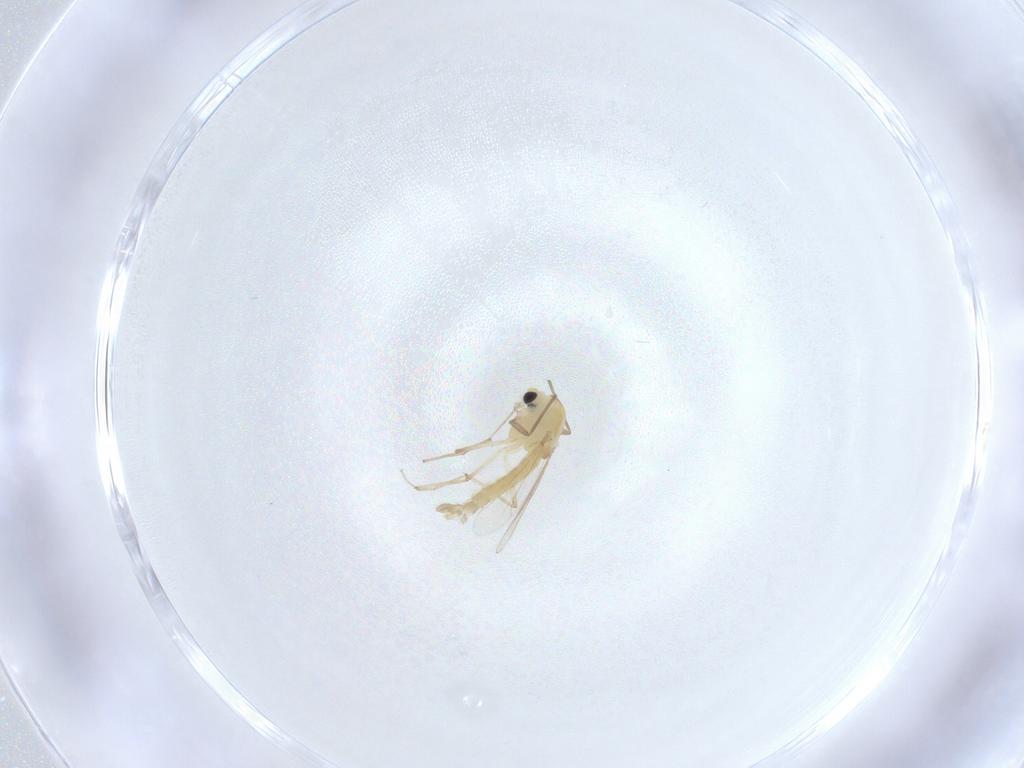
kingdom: Animalia
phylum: Arthropoda
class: Insecta
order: Diptera
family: Chironomidae
